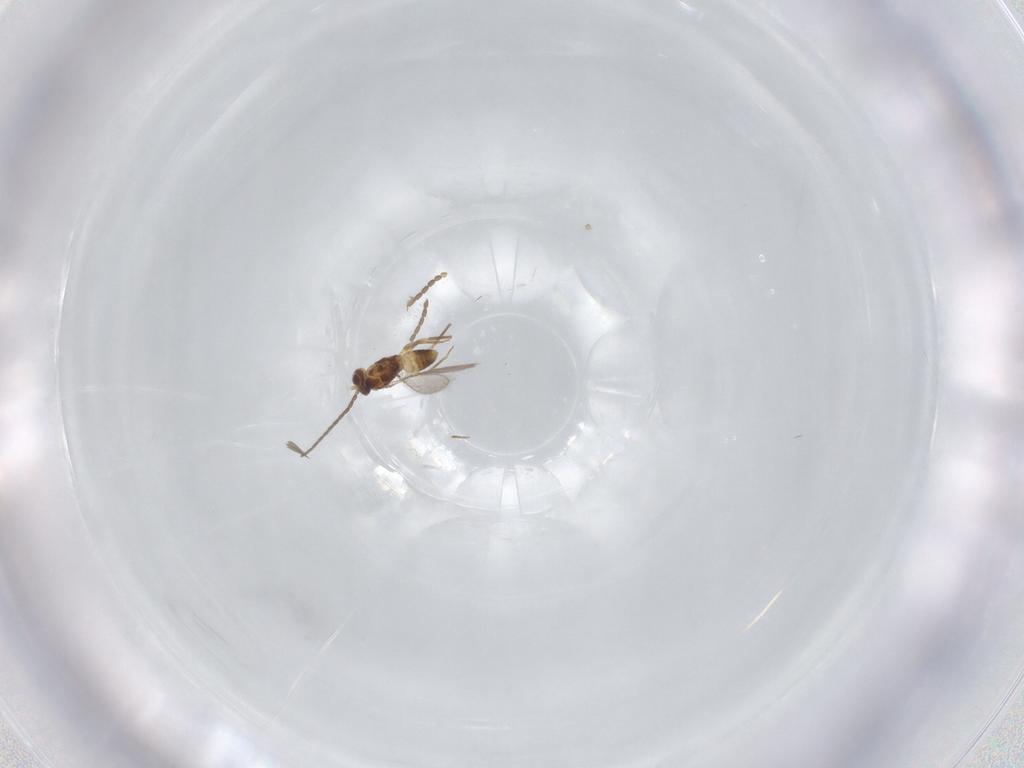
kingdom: Animalia
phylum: Arthropoda
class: Insecta
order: Hymenoptera
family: Mymaridae
